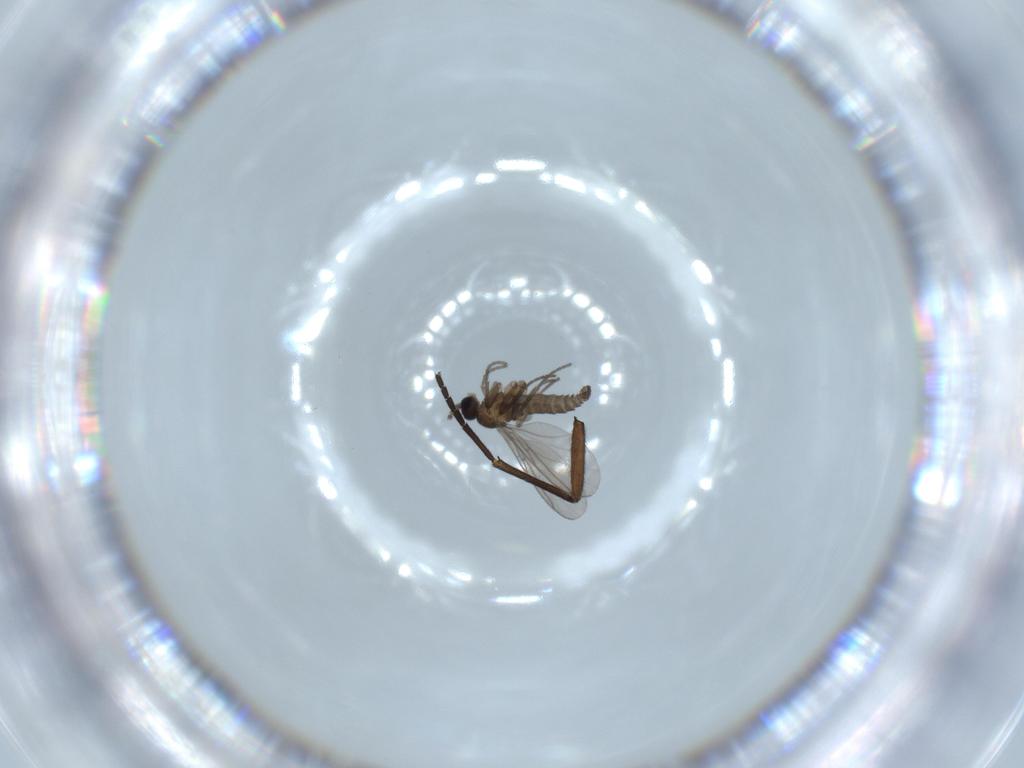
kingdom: Animalia
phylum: Arthropoda
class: Insecta
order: Diptera
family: Sciaridae
